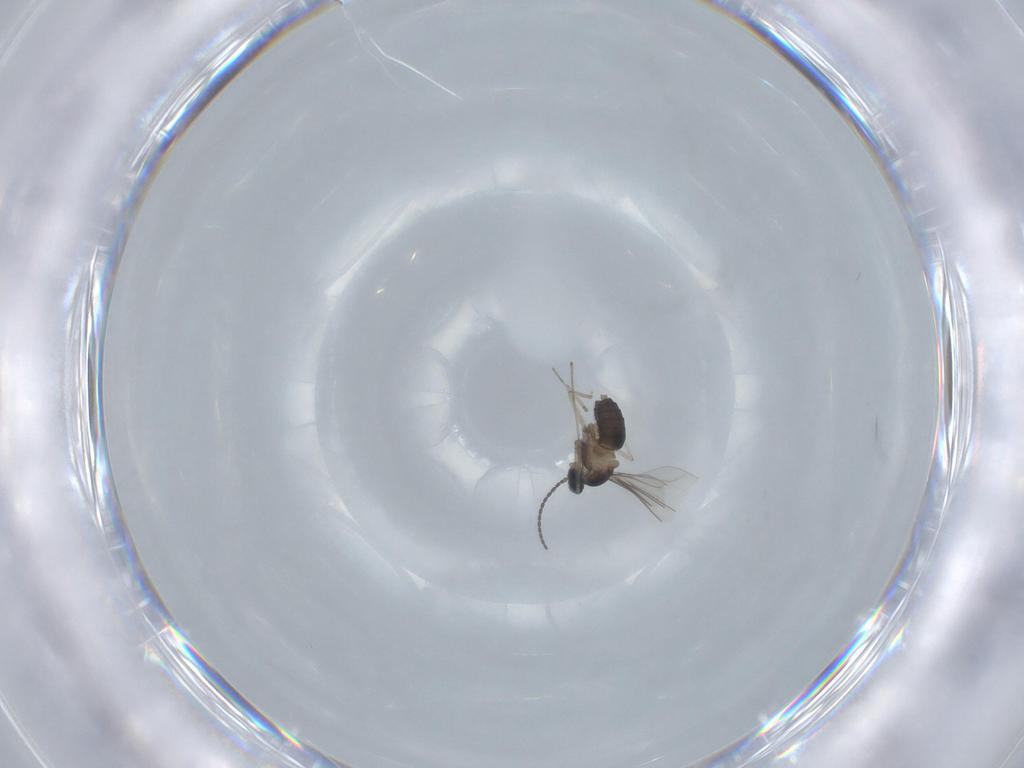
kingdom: Animalia
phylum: Arthropoda
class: Insecta
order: Diptera
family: Cecidomyiidae
